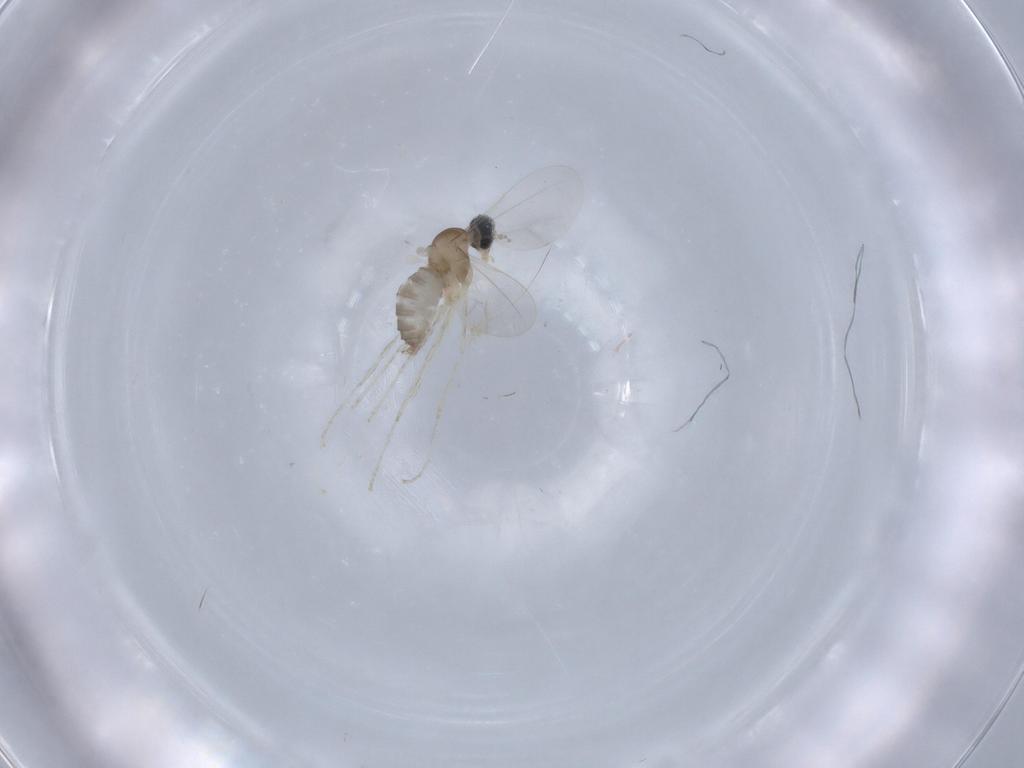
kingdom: Animalia
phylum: Arthropoda
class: Insecta
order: Diptera
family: Cecidomyiidae
